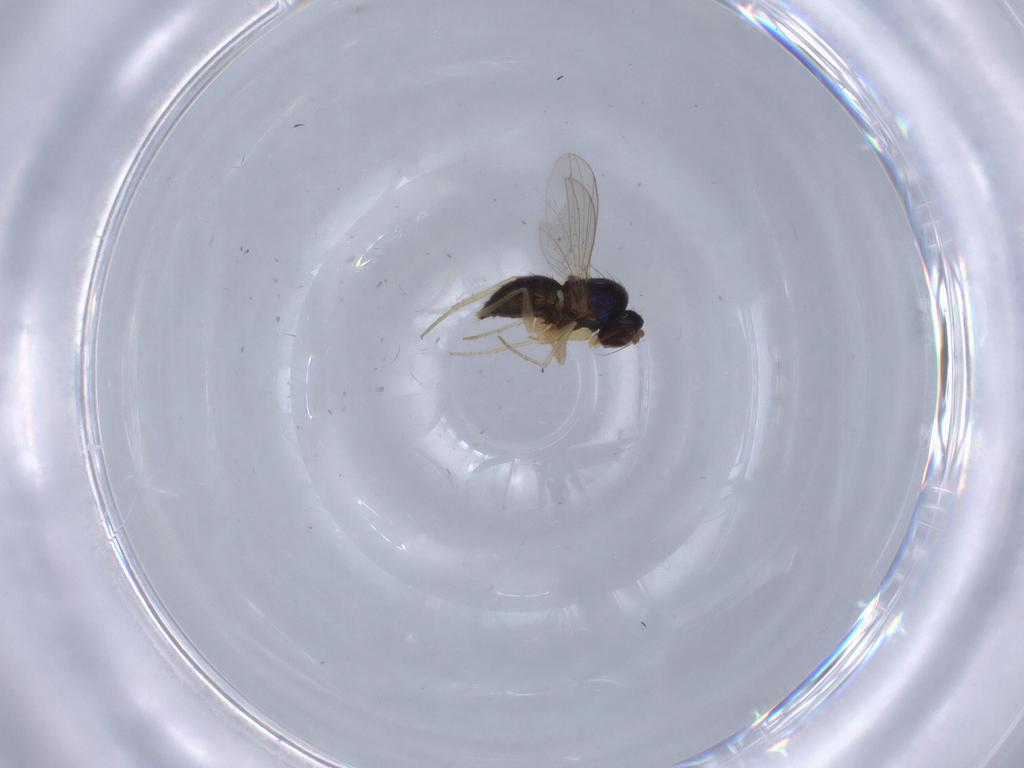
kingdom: Animalia
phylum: Arthropoda
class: Insecta
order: Diptera
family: Dolichopodidae
